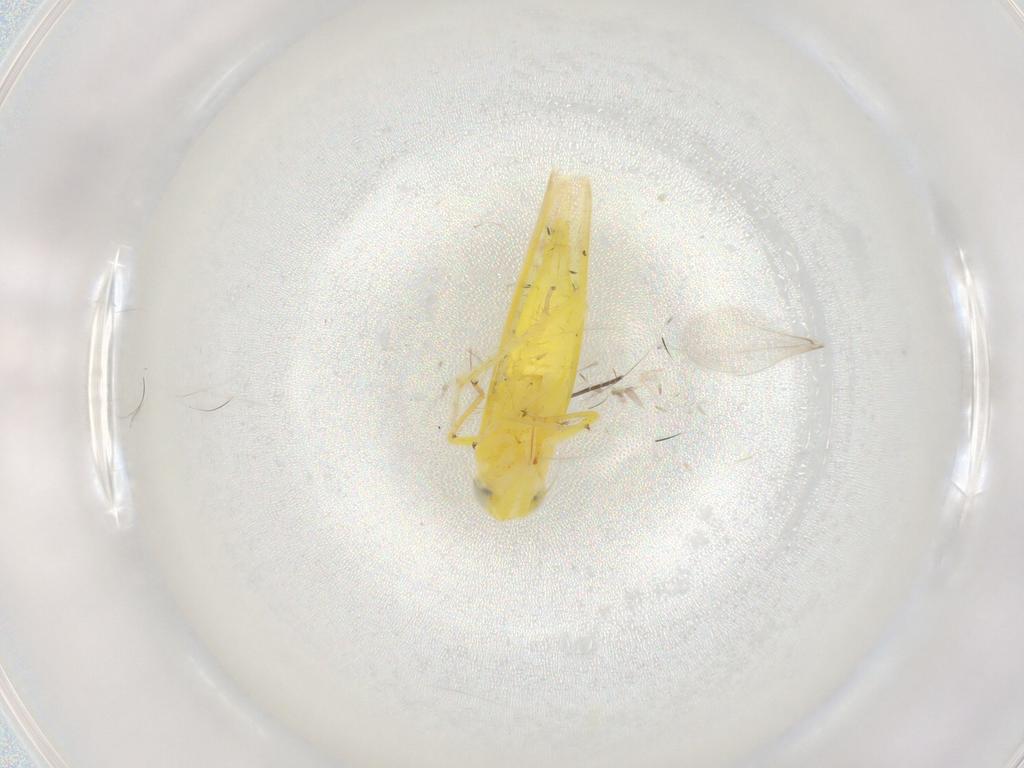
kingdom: Animalia
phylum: Arthropoda
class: Insecta
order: Hemiptera
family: Cicadellidae
